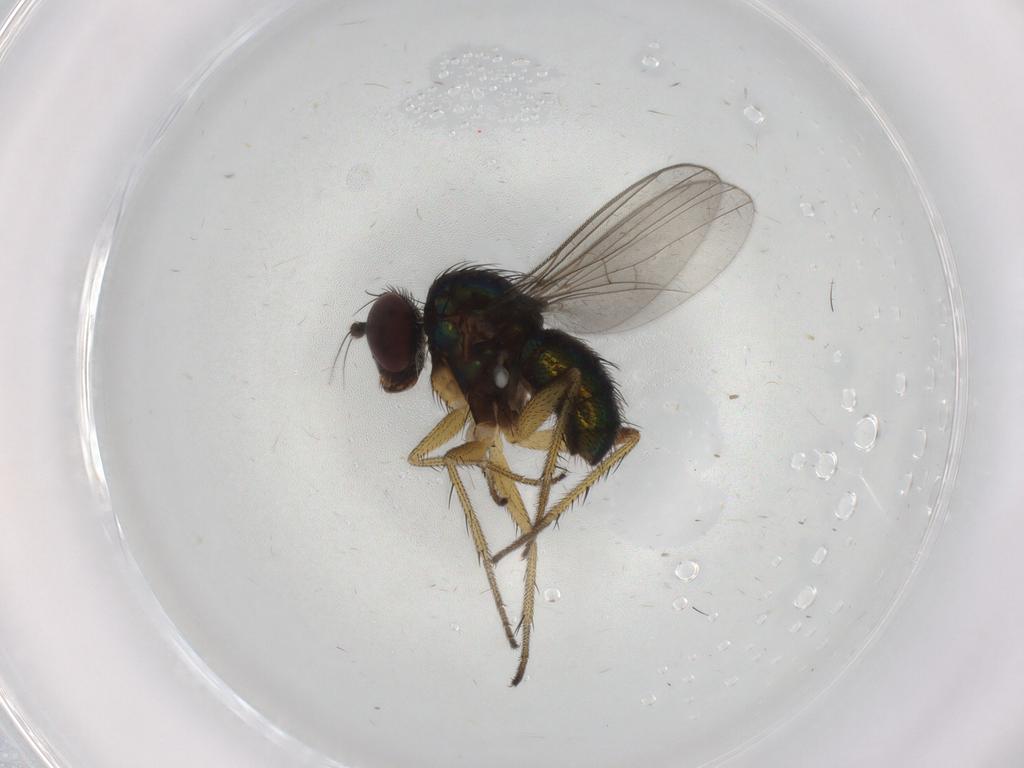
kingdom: Animalia
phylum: Arthropoda
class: Insecta
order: Diptera
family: Dolichopodidae
